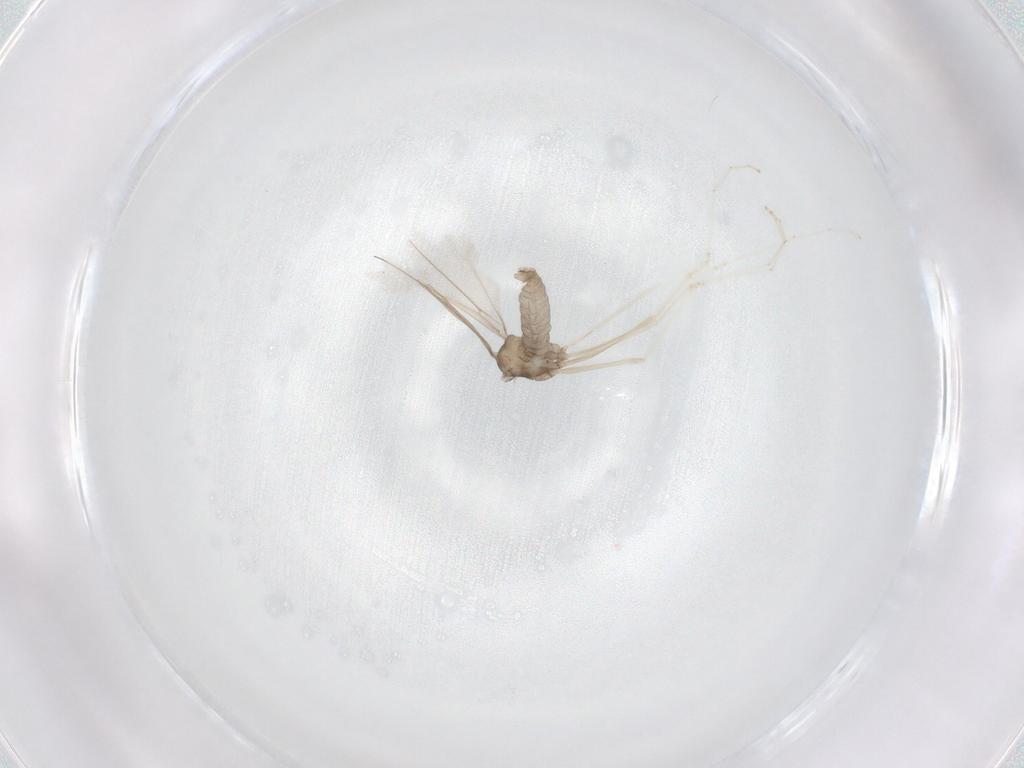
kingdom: Animalia
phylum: Arthropoda
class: Insecta
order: Diptera
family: Cecidomyiidae
